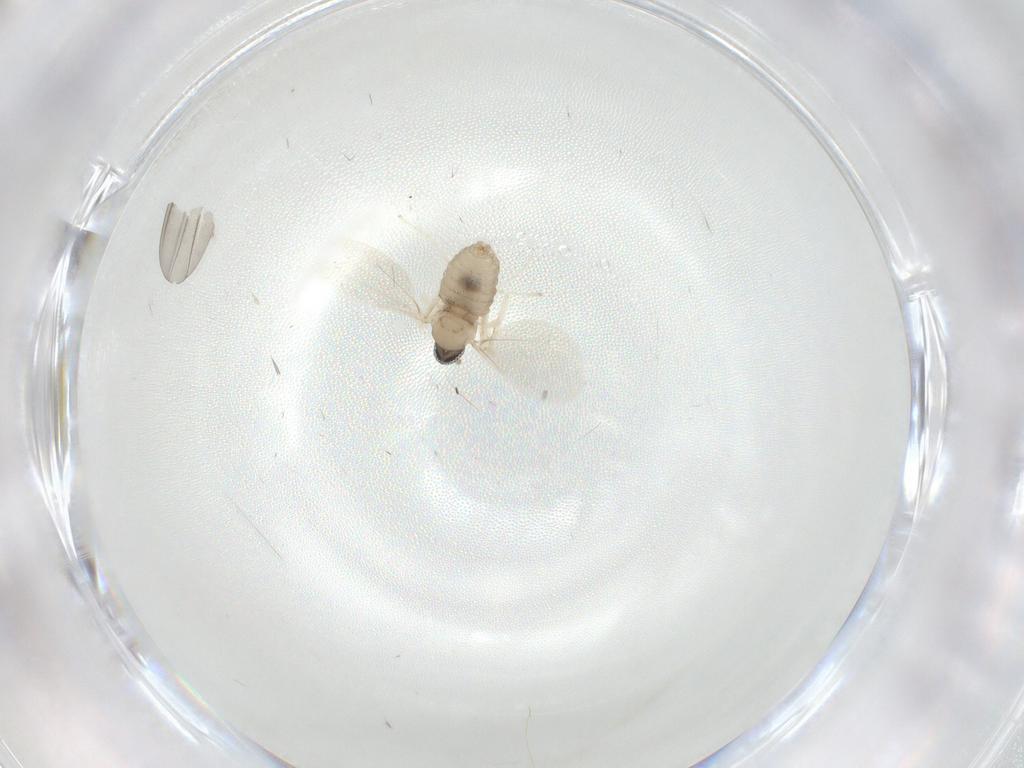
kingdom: Animalia
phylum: Arthropoda
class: Insecta
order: Diptera
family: Cecidomyiidae
